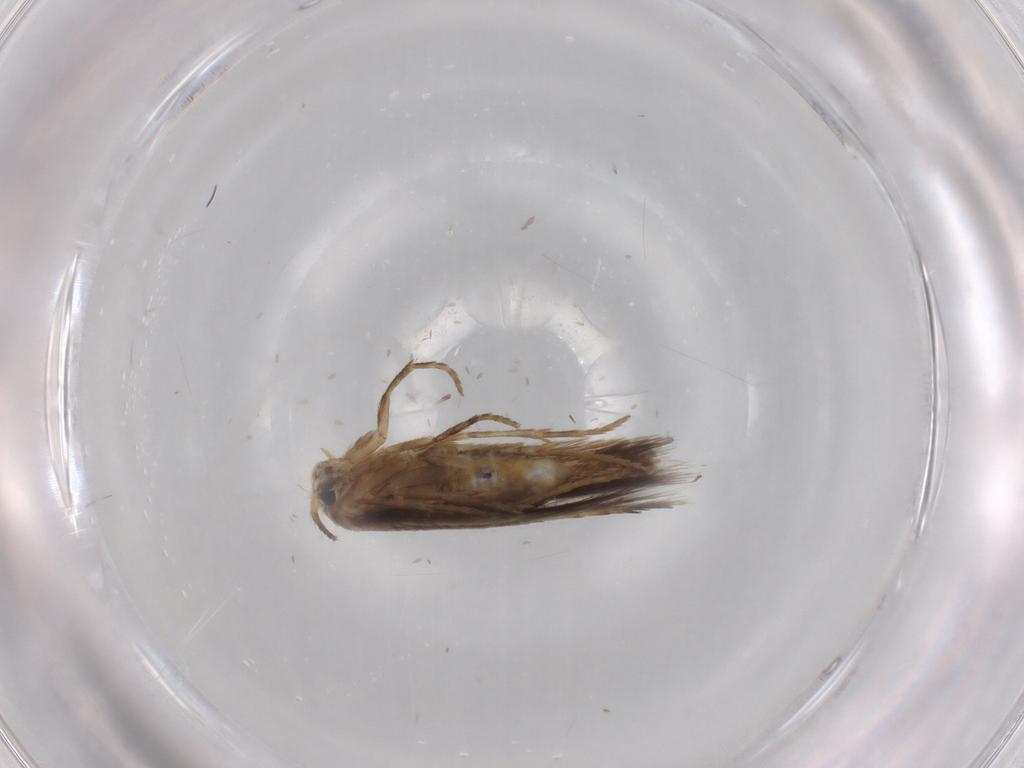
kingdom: Animalia
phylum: Arthropoda
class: Insecta
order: Lepidoptera
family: Nepticulidae
